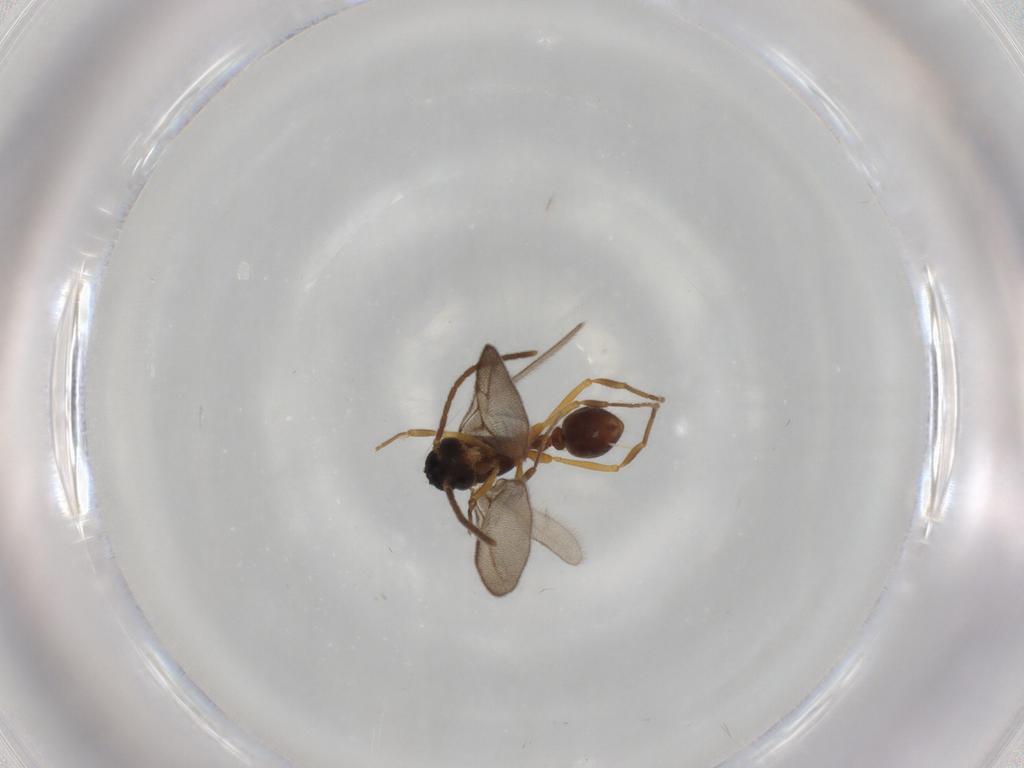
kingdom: Animalia
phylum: Arthropoda
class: Insecta
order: Hymenoptera
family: Formicidae
